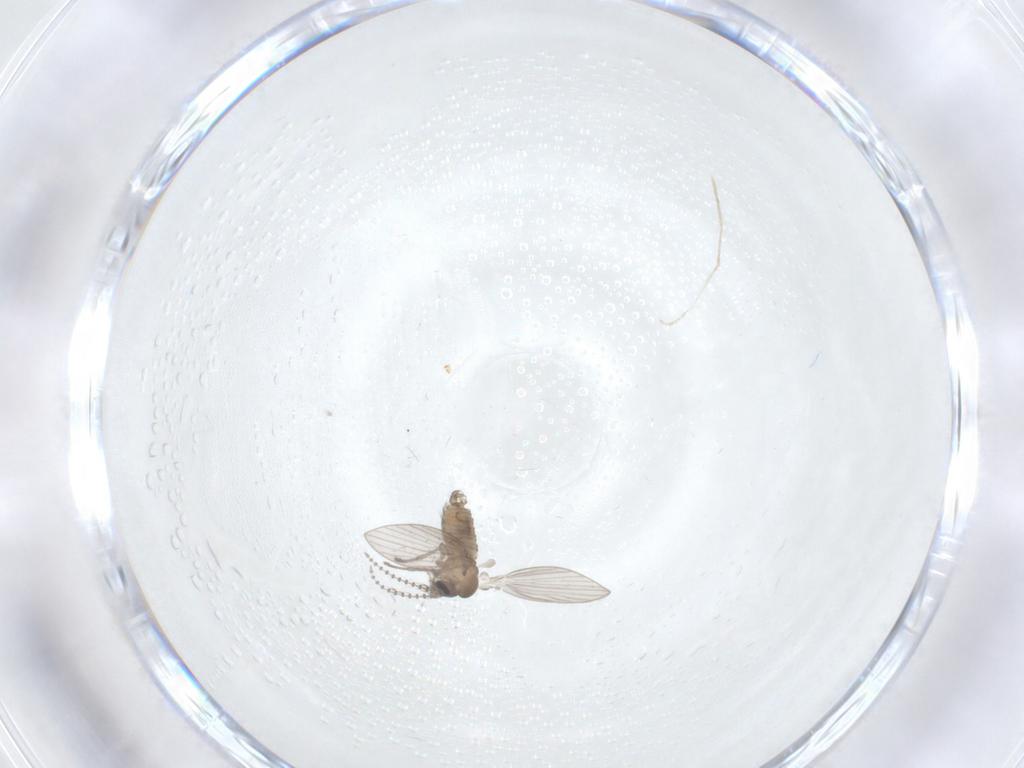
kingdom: Animalia
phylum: Arthropoda
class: Insecta
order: Diptera
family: Psychodidae
